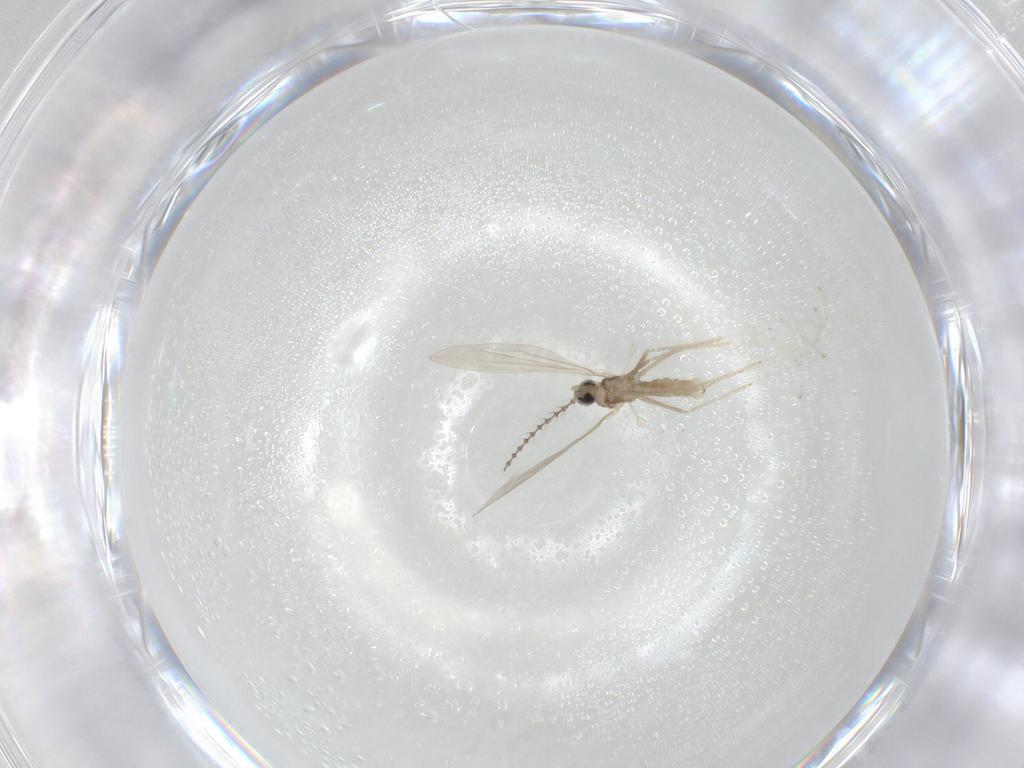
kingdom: Animalia
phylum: Arthropoda
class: Insecta
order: Diptera
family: Cecidomyiidae
